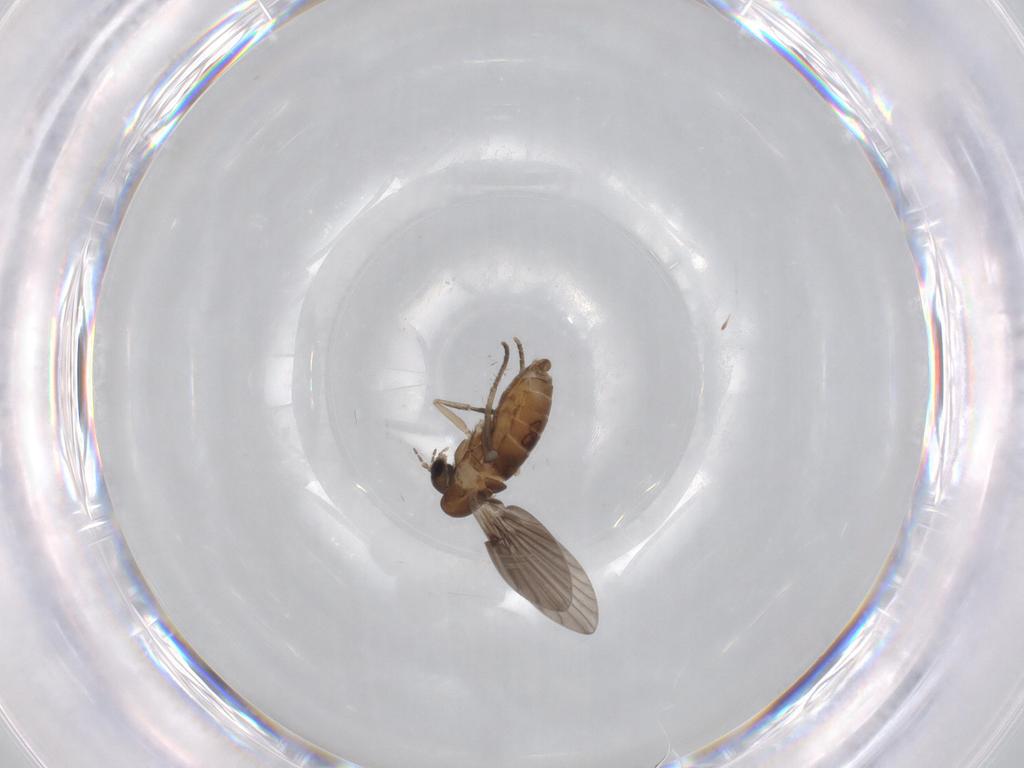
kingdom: Animalia
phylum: Arthropoda
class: Insecta
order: Diptera
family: Psychodidae
